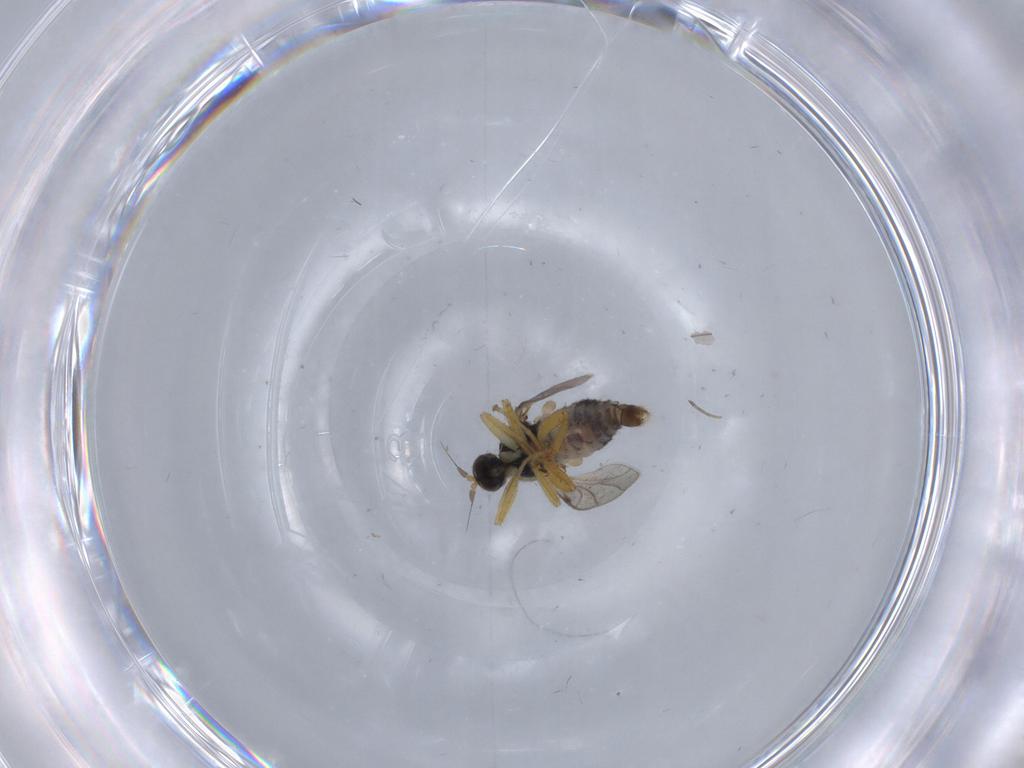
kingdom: Animalia
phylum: Arthropoda
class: Insecta
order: Diptera
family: Hybotidae
